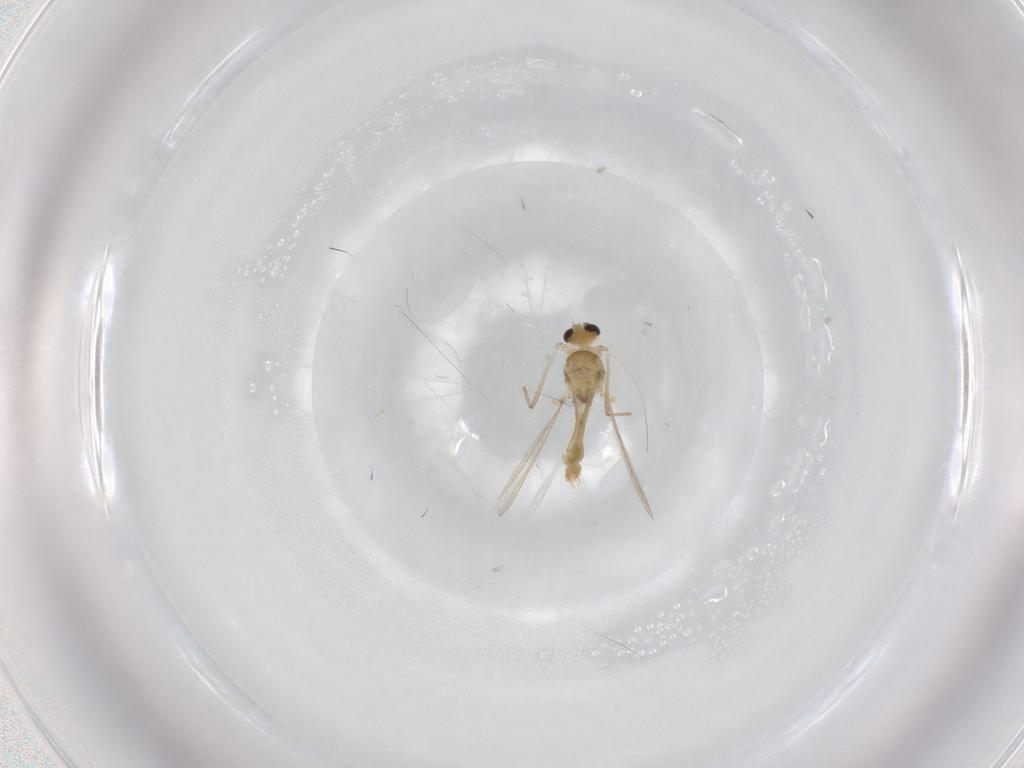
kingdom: Animalia
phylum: Arthropoda
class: Insecta
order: Diptera
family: Chironomidae
